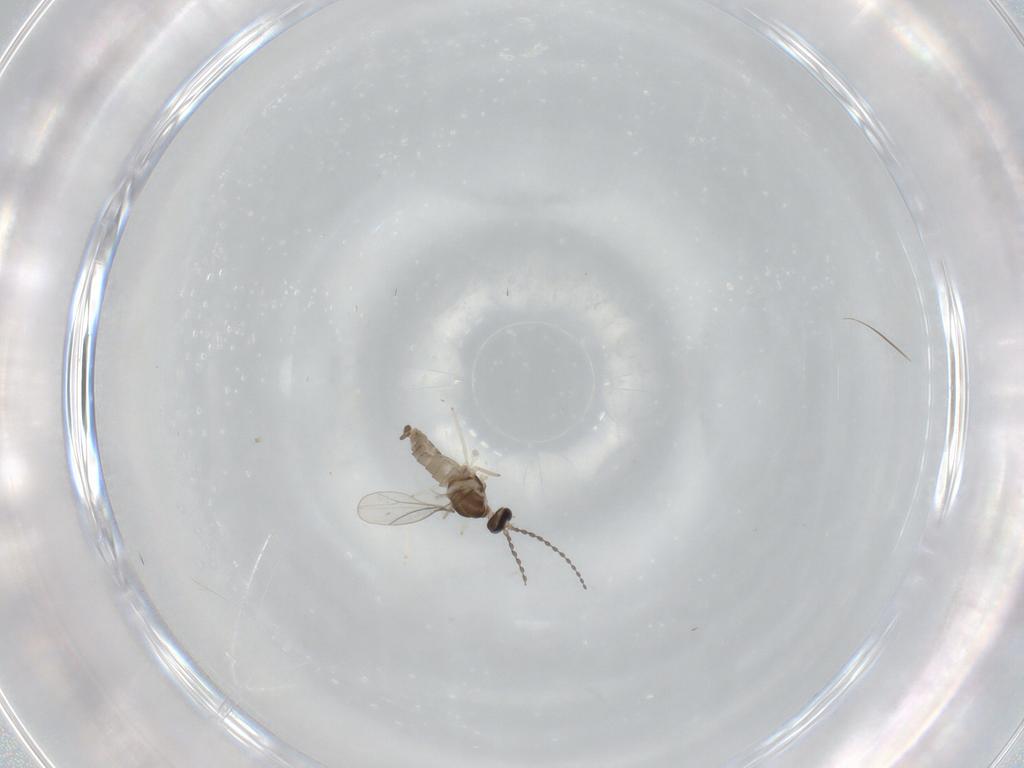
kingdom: Animalia
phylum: Arthropoda
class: Insecta
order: Diptera
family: Cecidomyiidae
